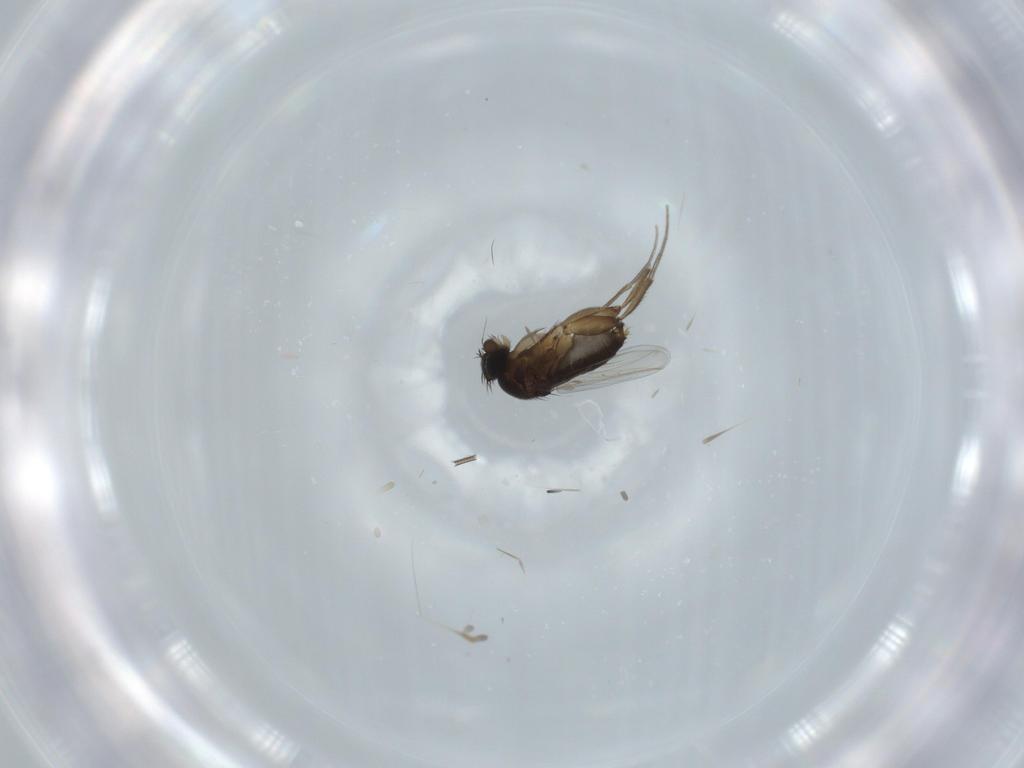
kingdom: Animalia
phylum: Arthropoda
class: Insecta
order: Diptera
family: Phoridae
